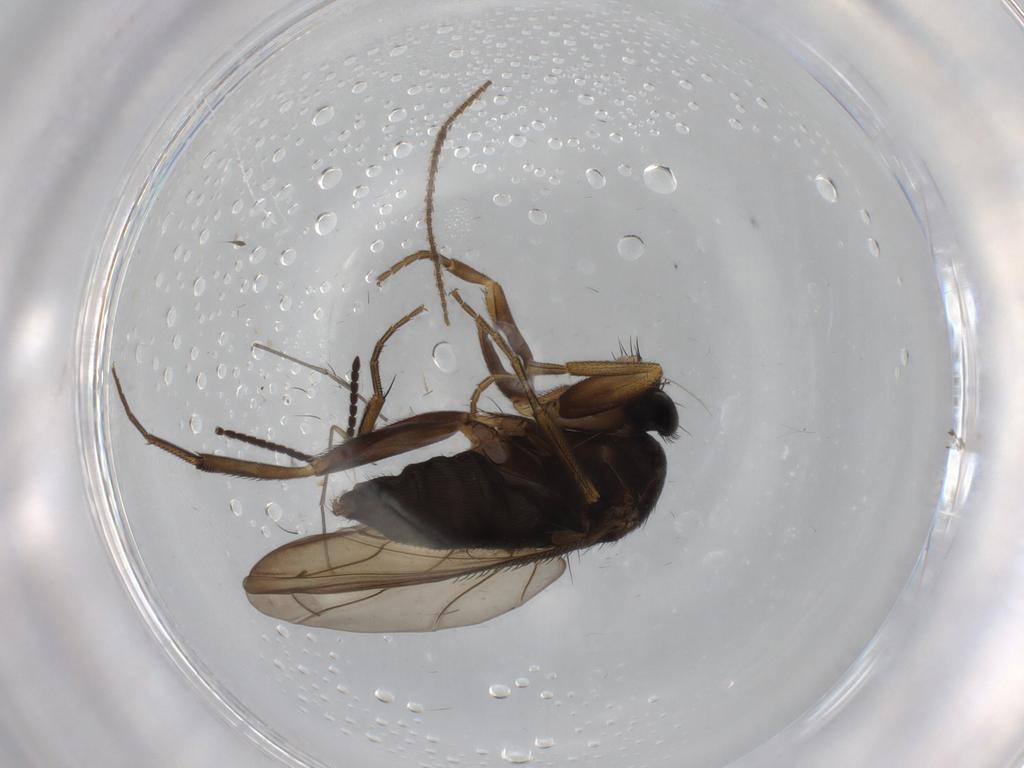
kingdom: Animalia
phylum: Arthropoda
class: Insecta
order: Diptera
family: Phoridae
